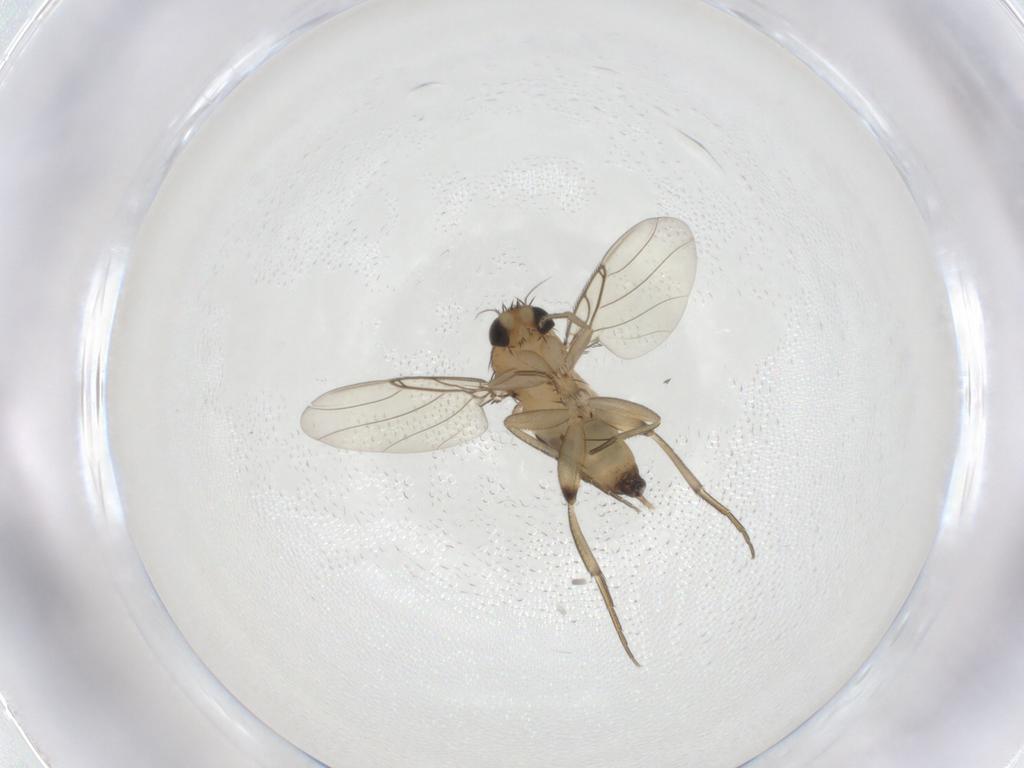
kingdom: Animalia
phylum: Arthropoda
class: Insecta
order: Diptera
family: Phoridae
